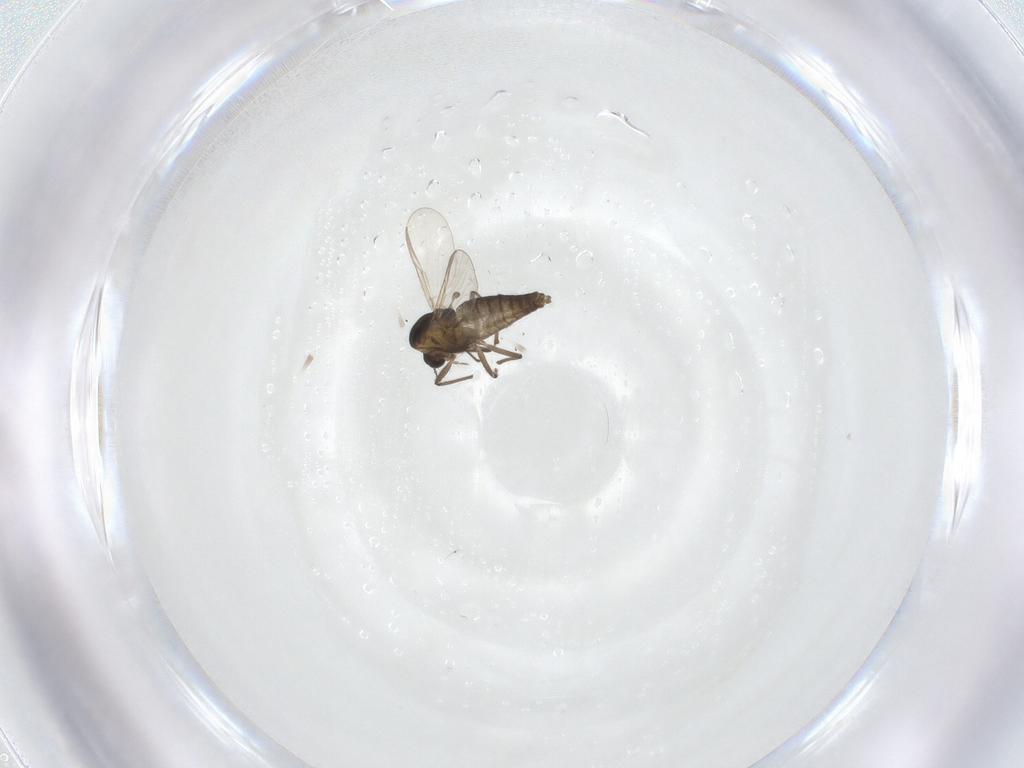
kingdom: Animalia
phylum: Arthropoda
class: Insecta
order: Diptera
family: Chironomidae
